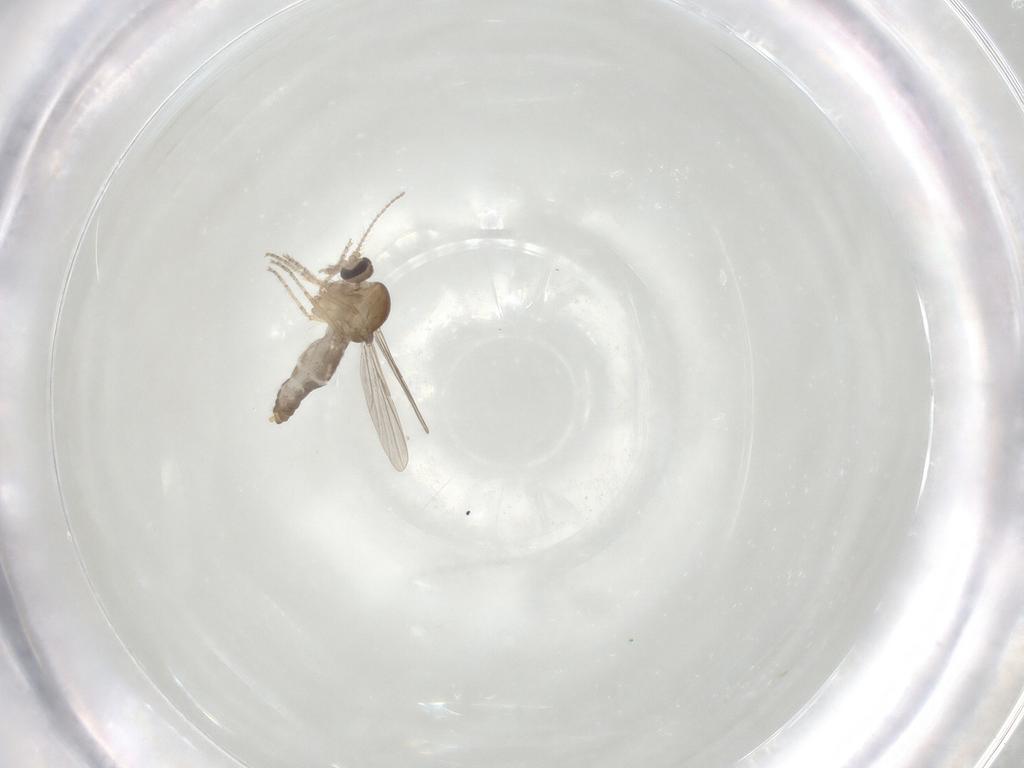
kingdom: Animalia
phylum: Arthropoda
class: Insecta
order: Diptera
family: Ceratopogonidae
